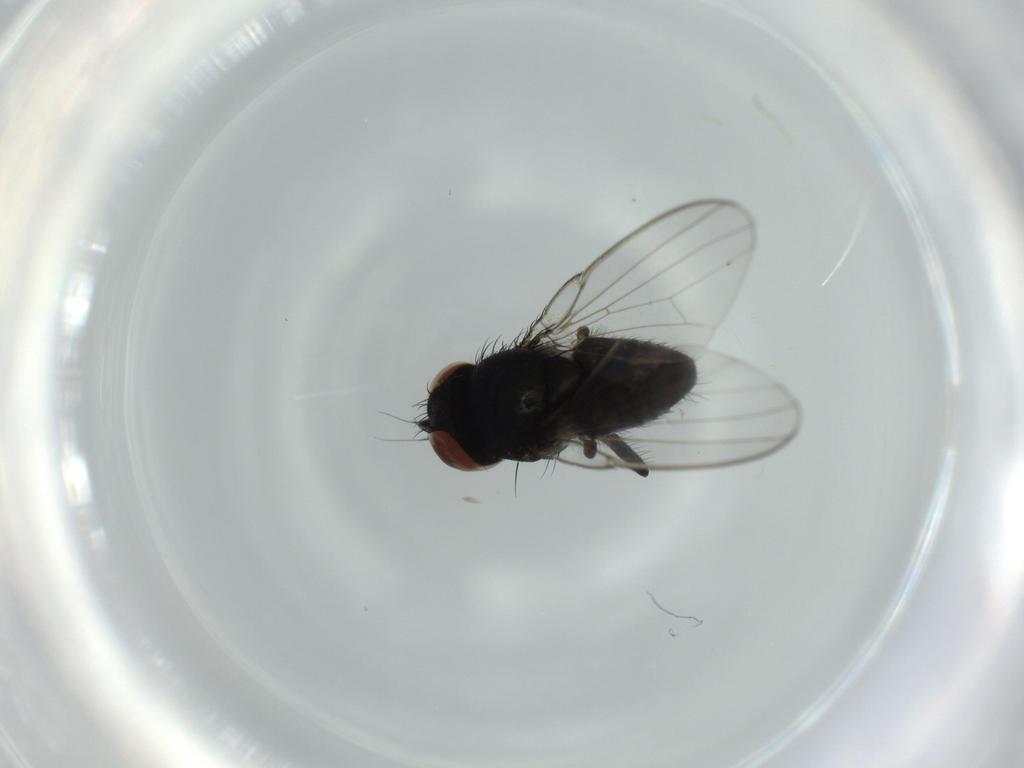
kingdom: Animalia
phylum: Arthropoda
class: Insecta
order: Diptera
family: Milichiidae
